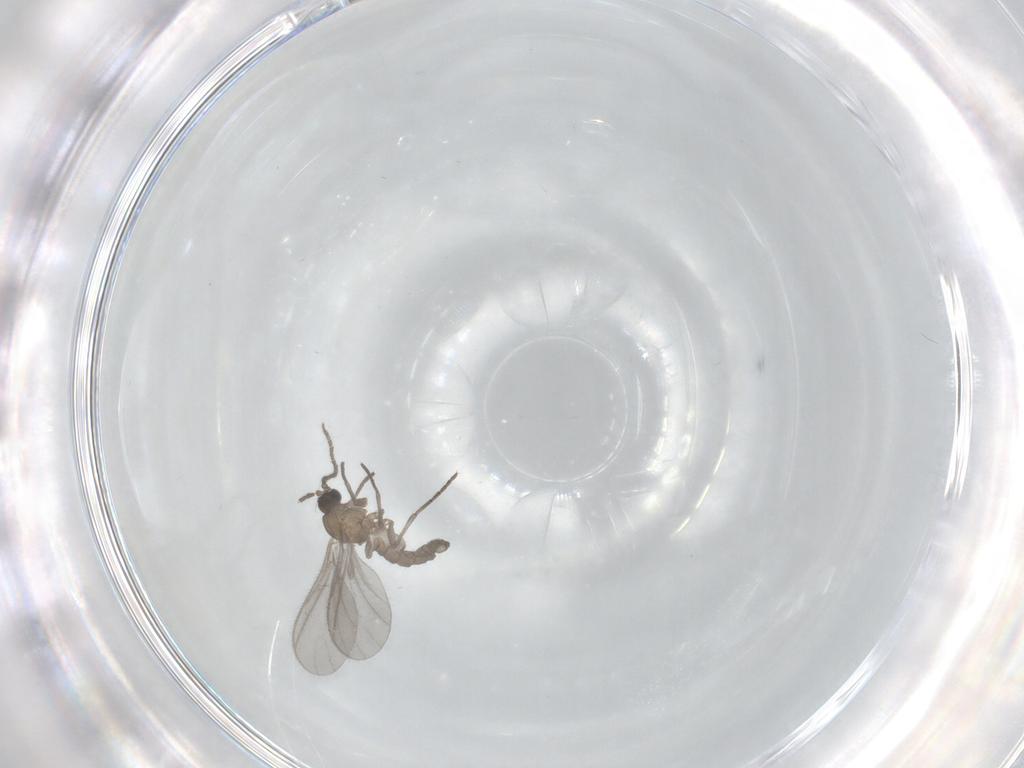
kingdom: Animalia
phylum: Arthropoda
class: Insecta
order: Diptera
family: Sciaridae
